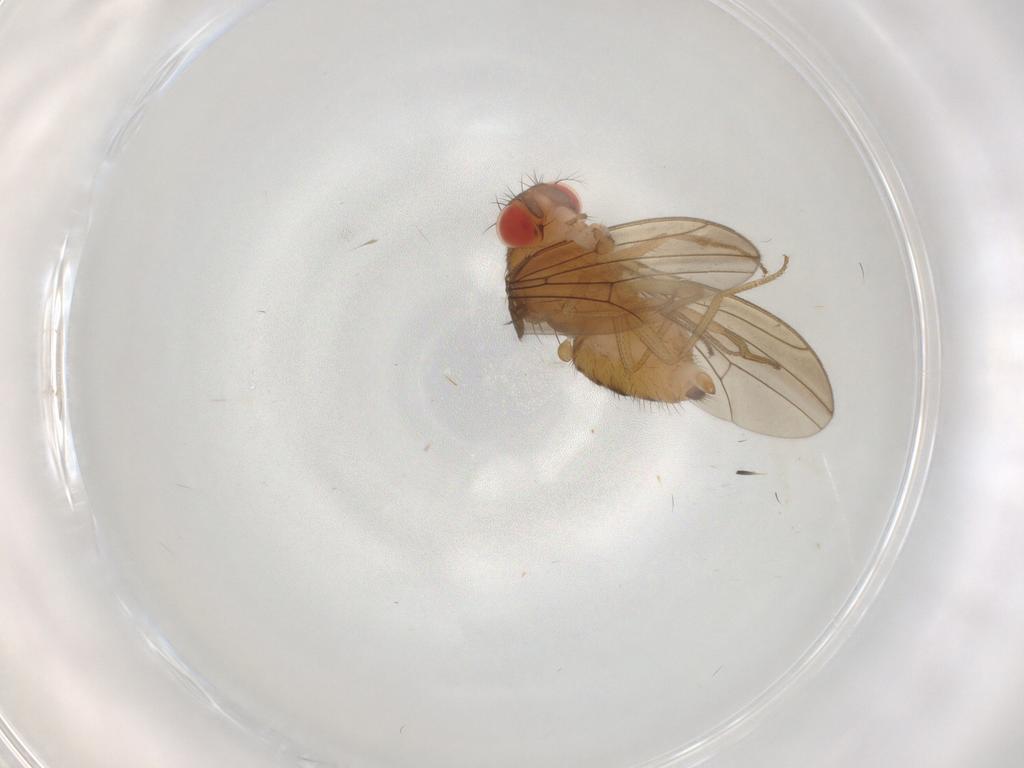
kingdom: Animalia
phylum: Arthropoda
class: Insecta
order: Diptera
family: Drosophilidae
